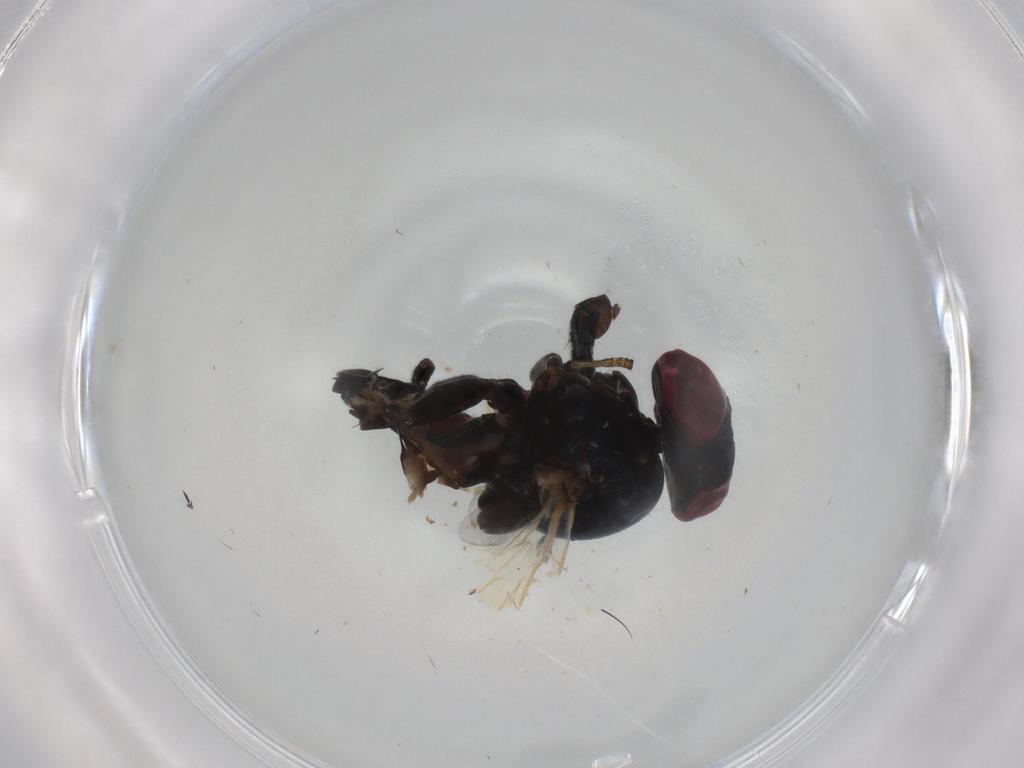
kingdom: Animalia
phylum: Arthropoda
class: Insecta
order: Diptera
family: Lonchaeidae
